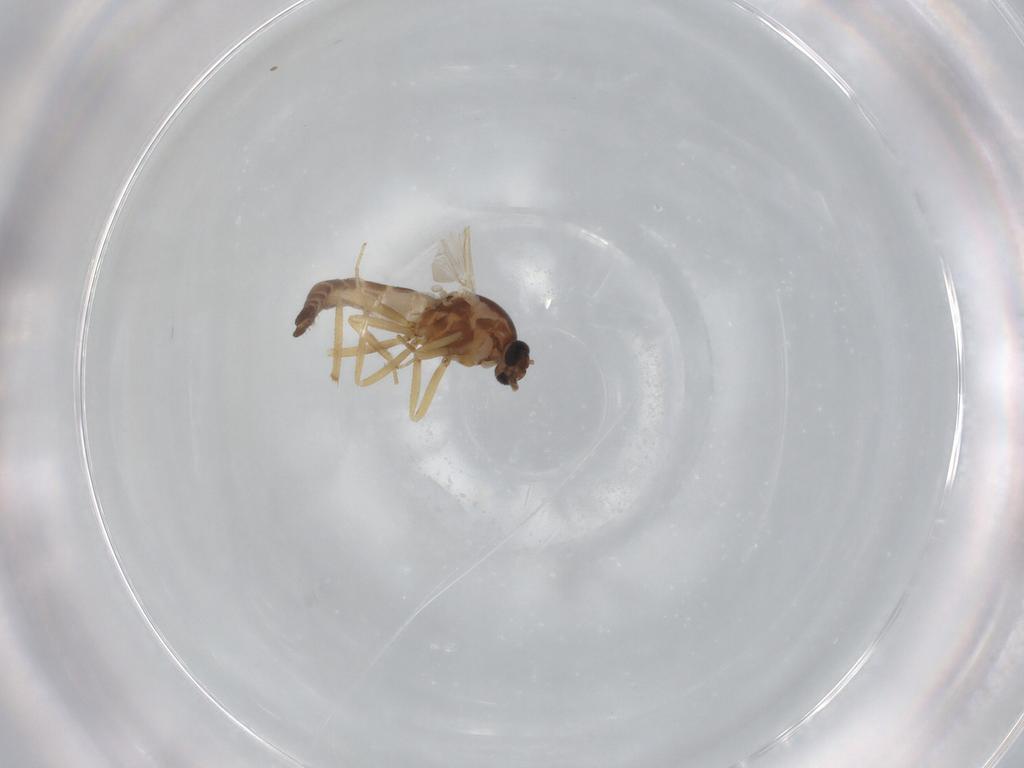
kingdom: Animalia
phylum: Arthropoda
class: Insecta
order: Diptera
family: Ceratopogonidae
